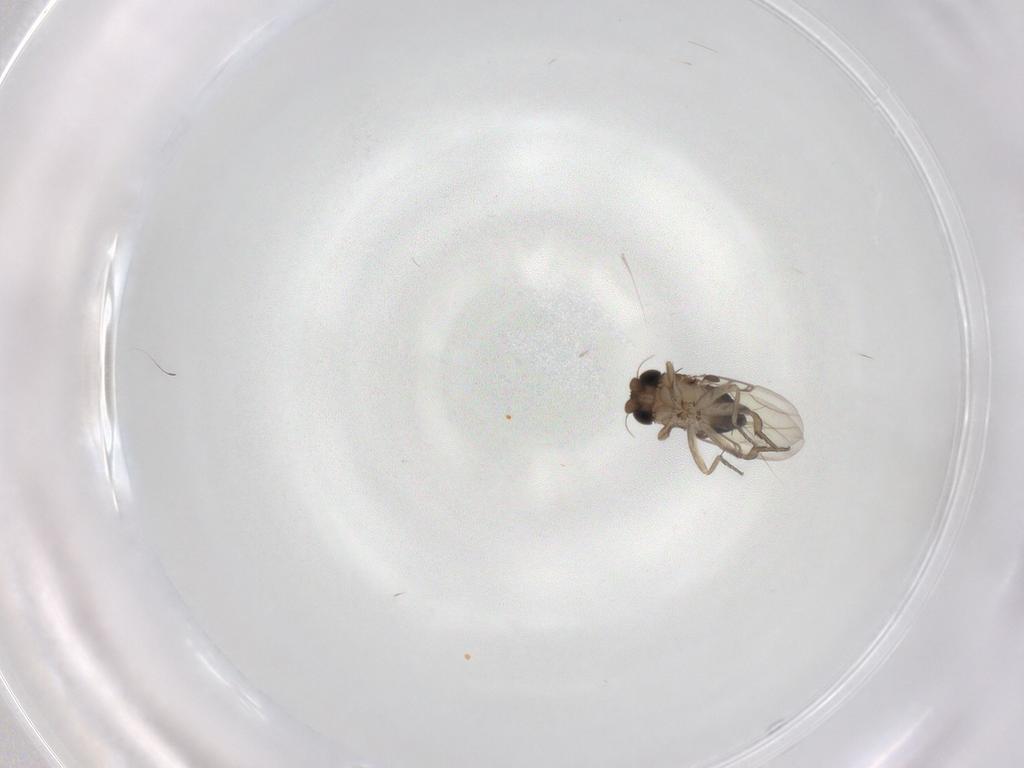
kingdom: Animalia
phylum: Arthropoda
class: Insecta
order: Diptera
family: Phoridae
